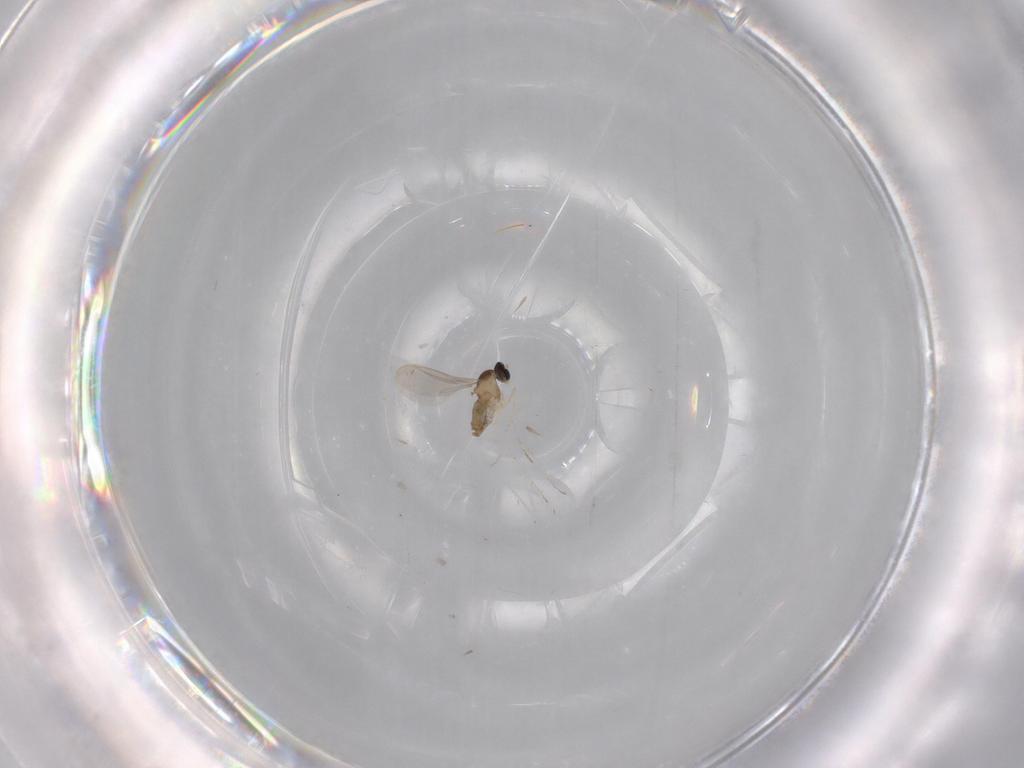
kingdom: Animalia
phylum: Arthropoda
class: Insecta
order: Diptera
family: Cecidomyiidae
